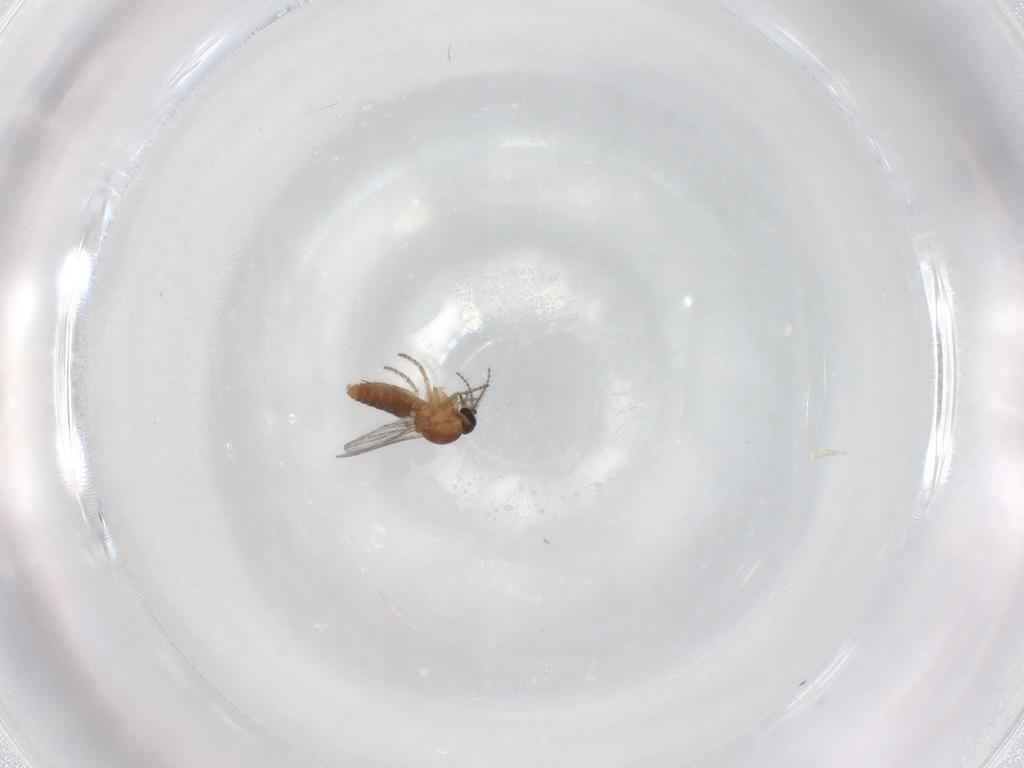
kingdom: Animalia
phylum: Arthropoda
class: Insecta
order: Diptera
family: Ceratopogonidae
